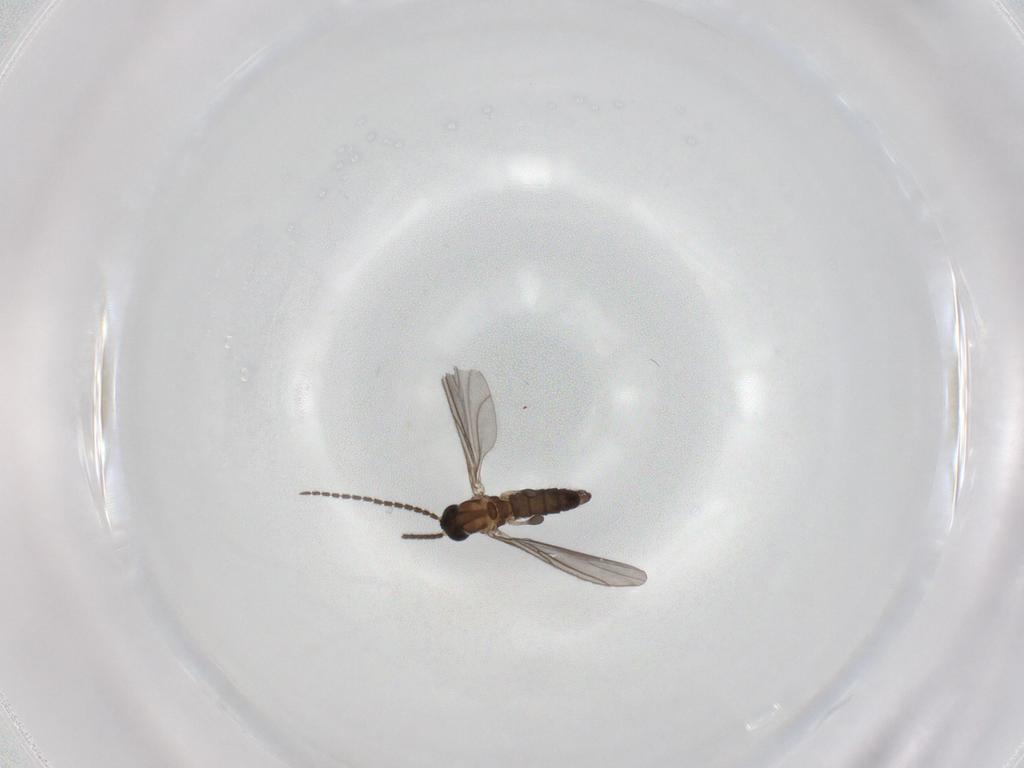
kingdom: Animalia
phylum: Arthropoda
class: Insecta
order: Diptera
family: Sciaridae
